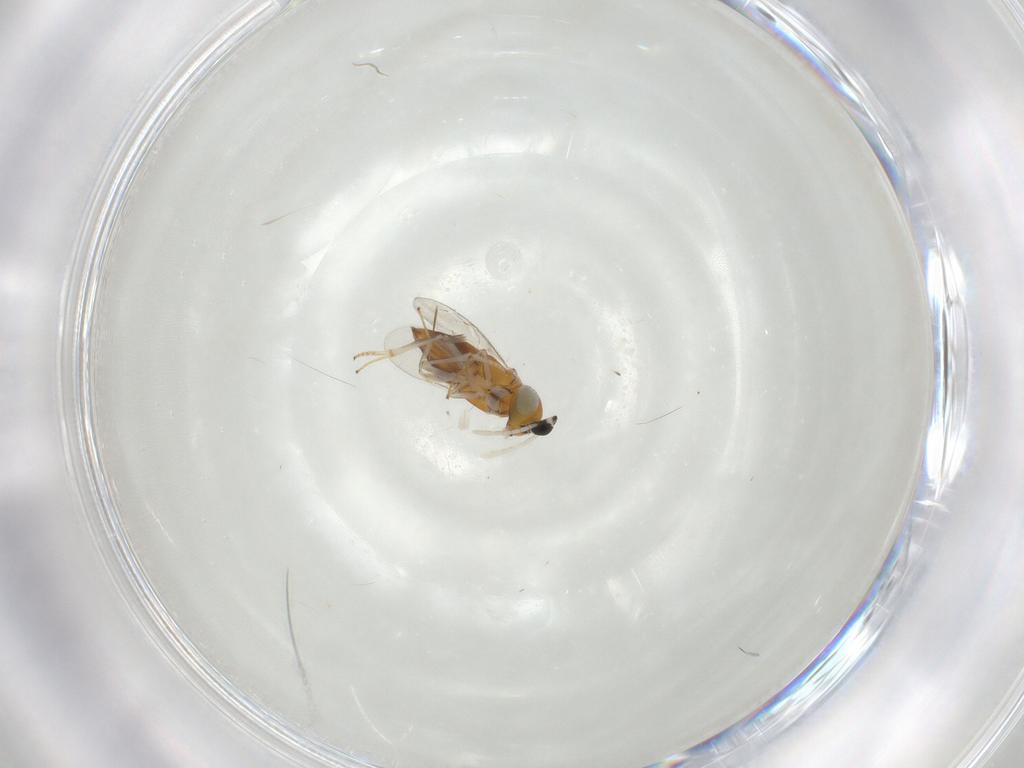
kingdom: Animalia
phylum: Arthropoda
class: Insecta
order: Hymenoptera
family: Encyrtidae
